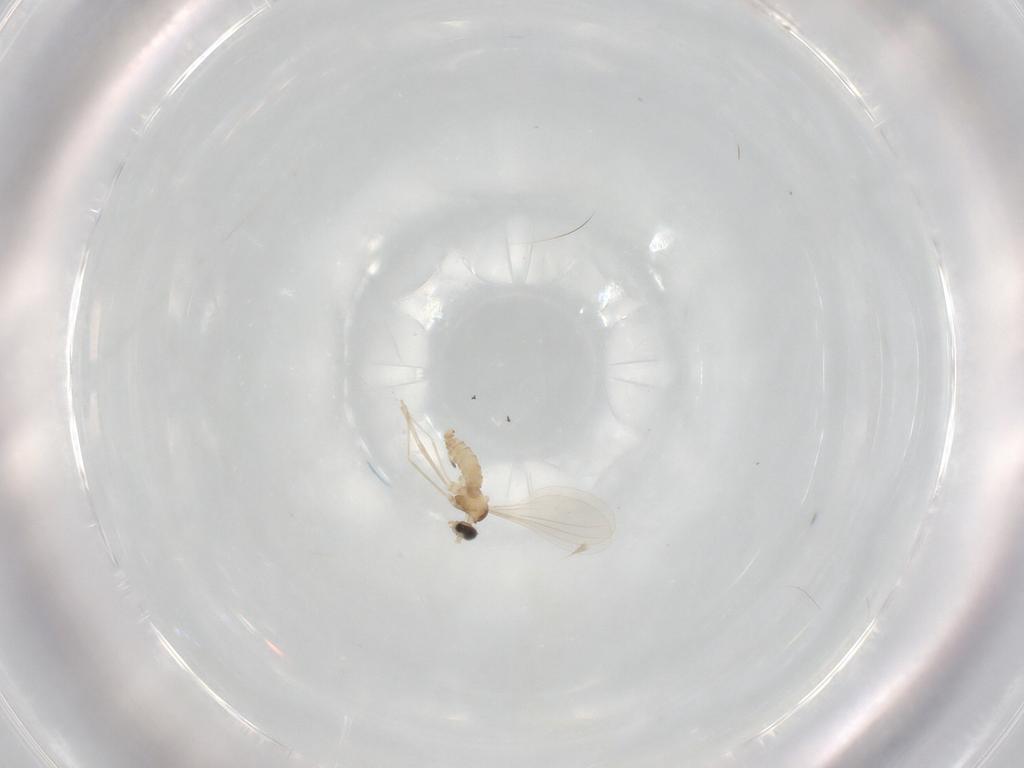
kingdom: Animalia
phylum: Arthropoda
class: Insecta
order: Diptera
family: Cecidomyiidae
